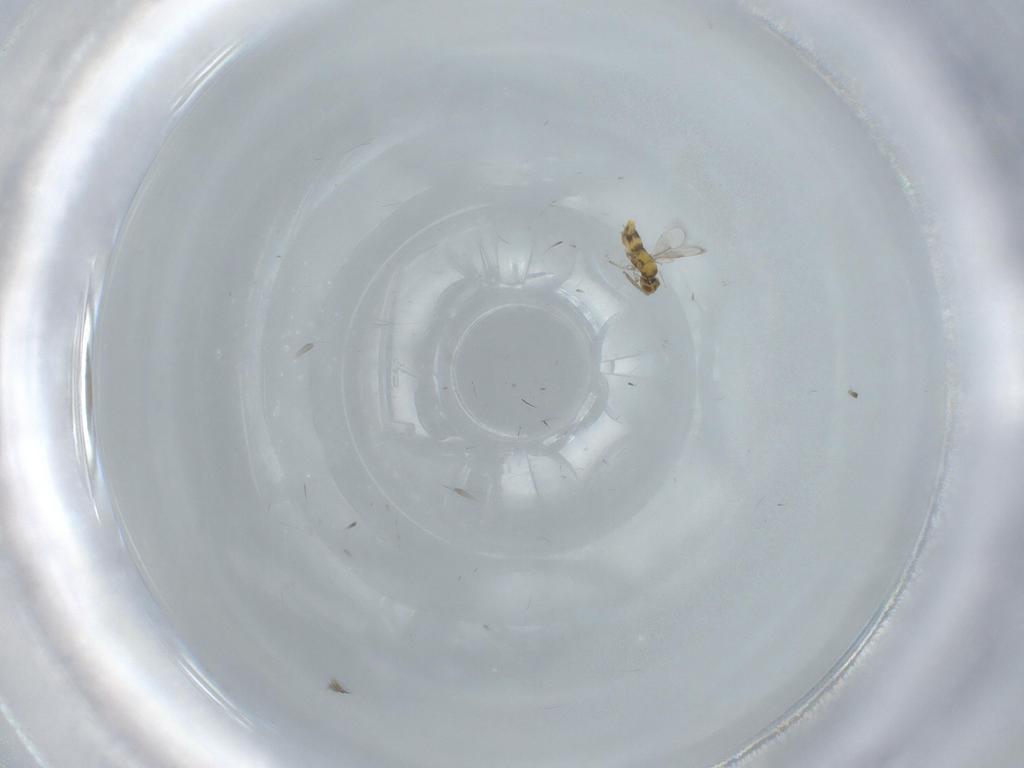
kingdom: Animalia
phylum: Arthropoda
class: Insecta
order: Hymenoptera
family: Aphelinidae
